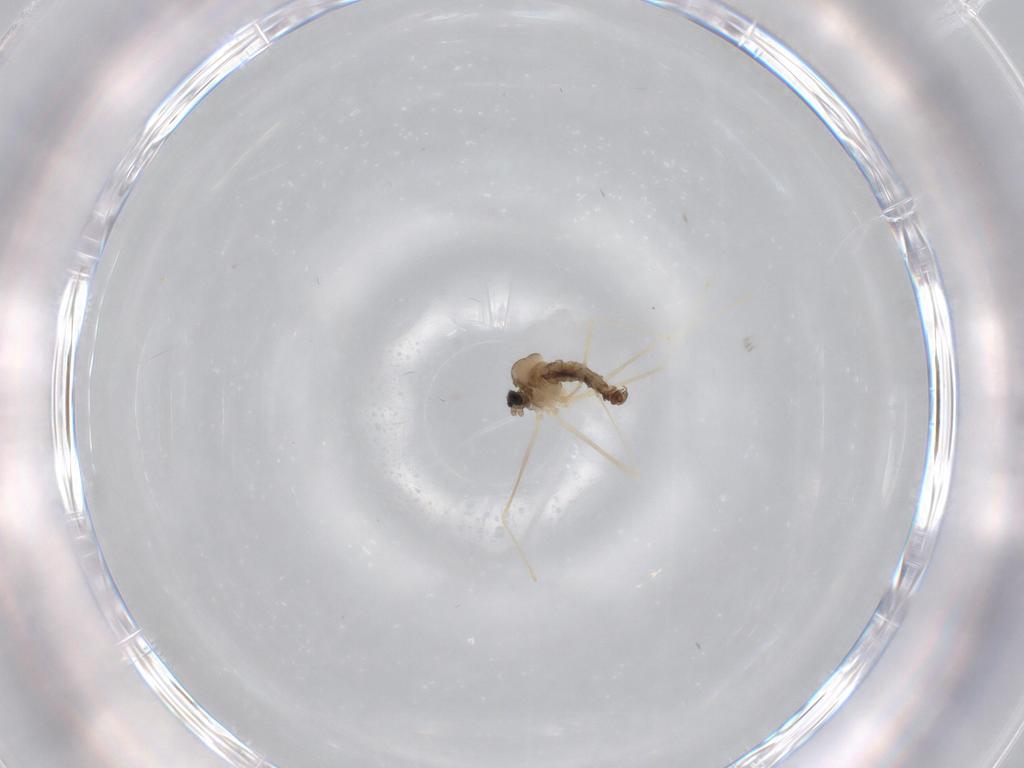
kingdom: Animalia
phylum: Arthropoda
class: Insecta
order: Diptera
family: Cecidomyiidae
